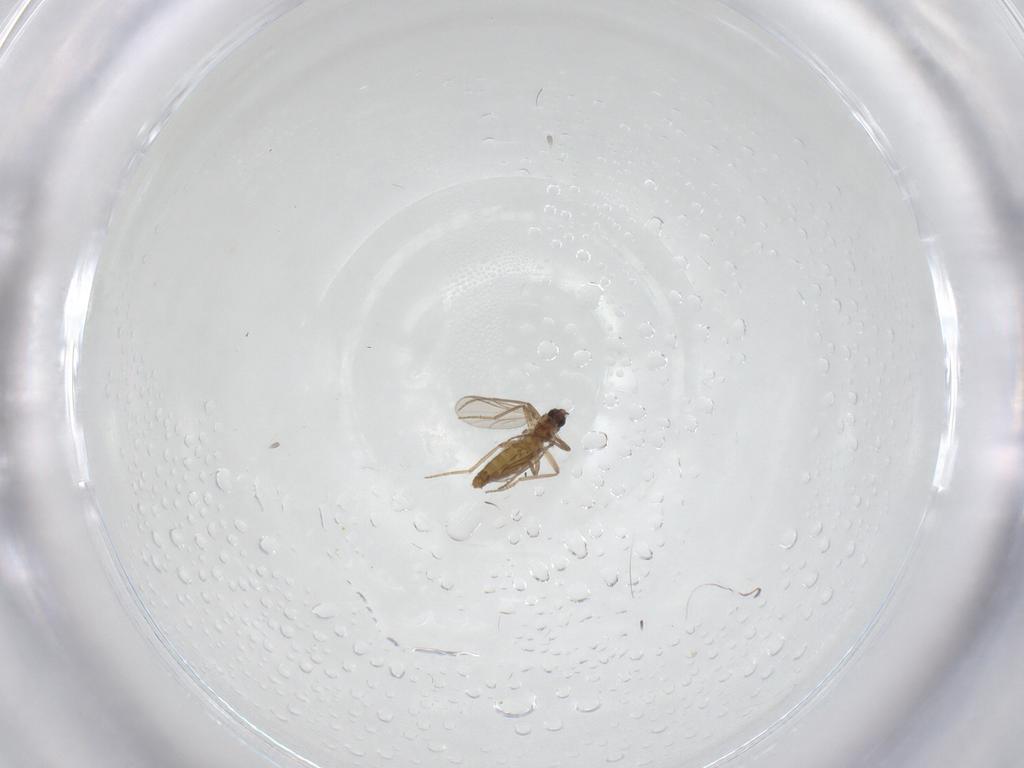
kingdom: Animalia
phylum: Arthropoda
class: Insecta
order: Diptera
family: Chironomidae
